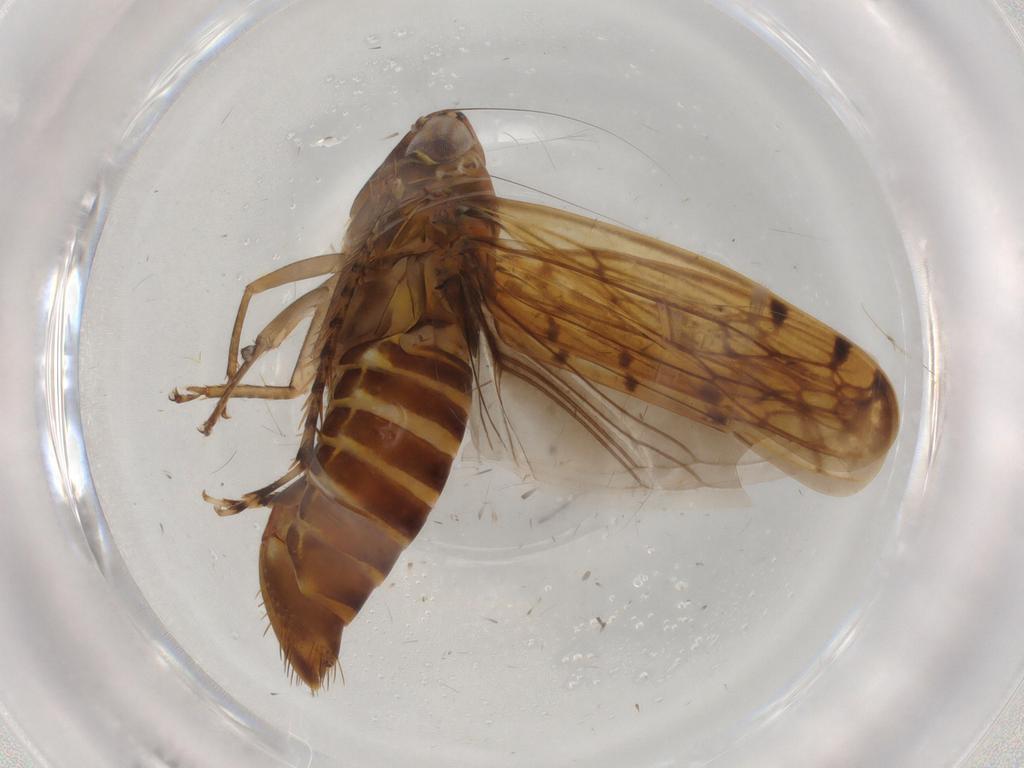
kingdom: Animalia
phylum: Arthropoda
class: Insecta
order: Hemiptera
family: Cicadellidae
